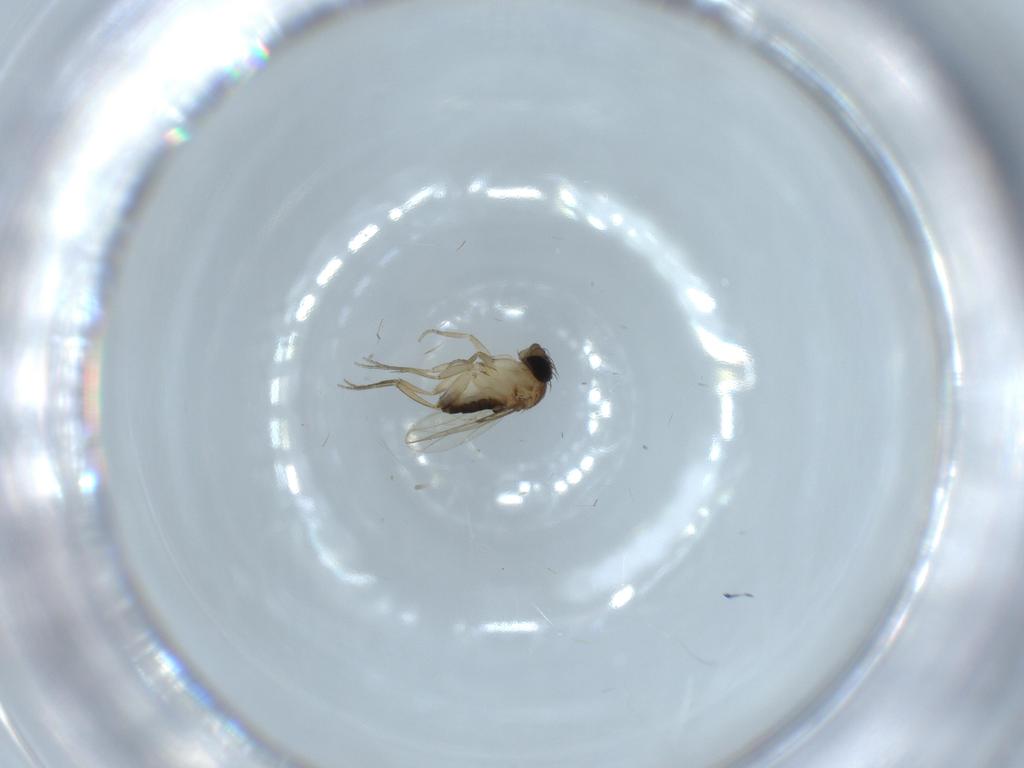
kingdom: Animalia
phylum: Arthropoda
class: Insecta
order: Diptera
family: Phoridae
